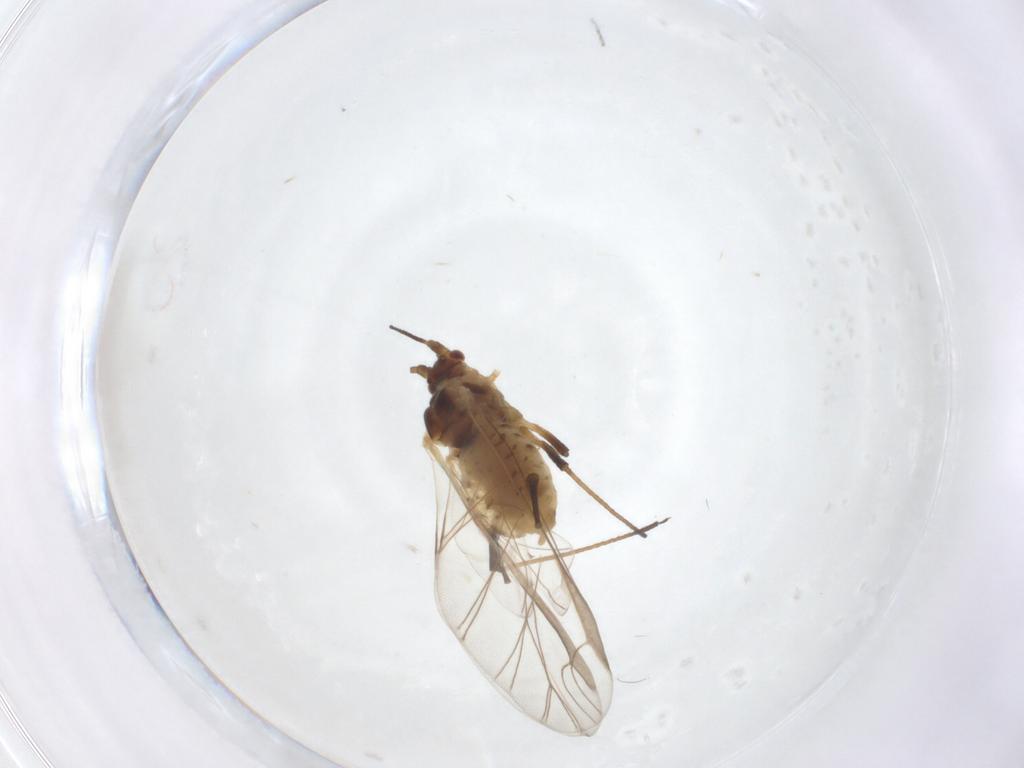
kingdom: Animalia
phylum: Arthropoda
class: Insecta
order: Hemiptera
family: Aphididae
